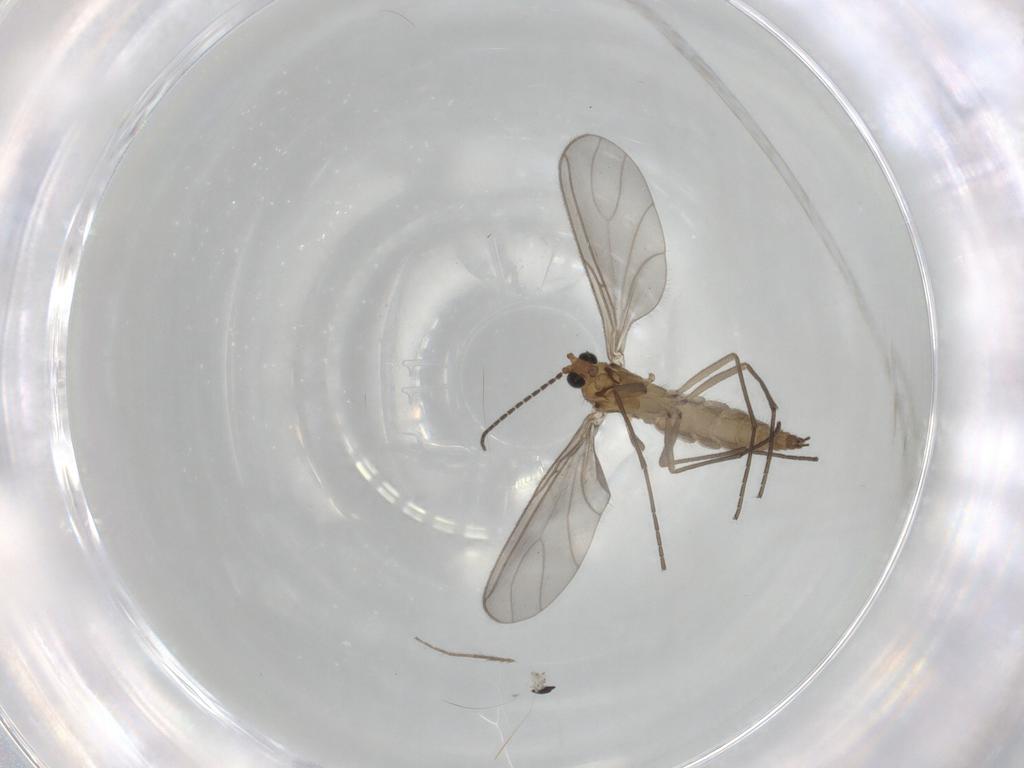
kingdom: Animalia
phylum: Arthropoda
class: Insecta
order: Diptera
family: Sciaridae
